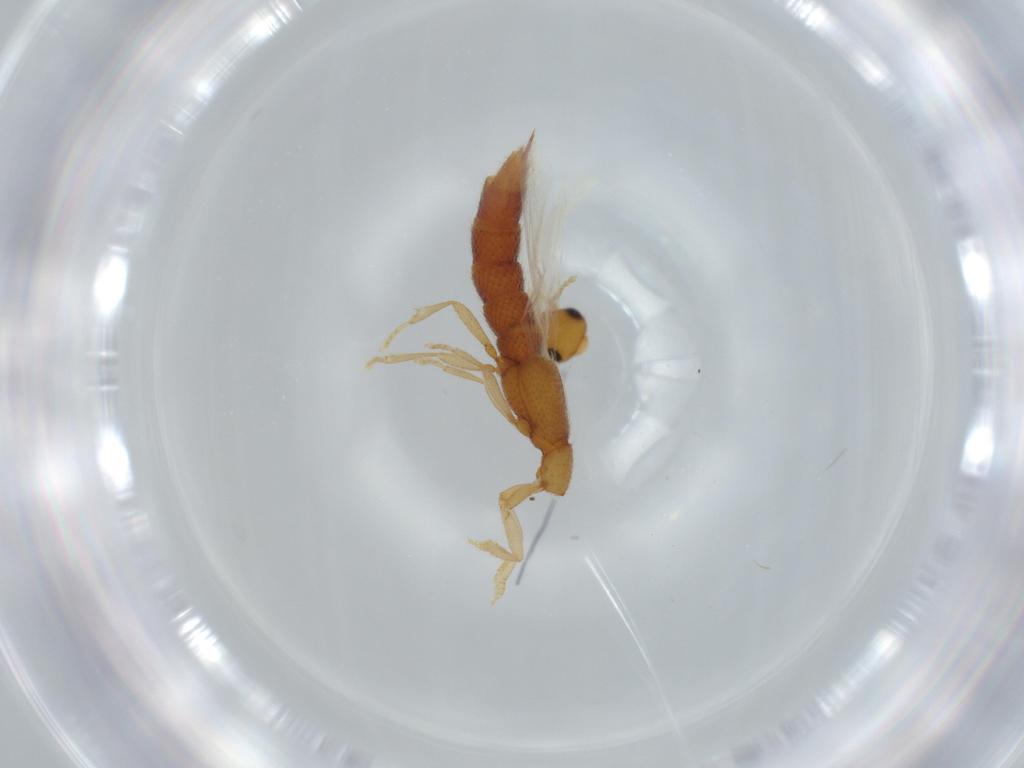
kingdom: Animalia
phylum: Arthropoda
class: Insecta
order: Coleoptera
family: Staphylinidae
